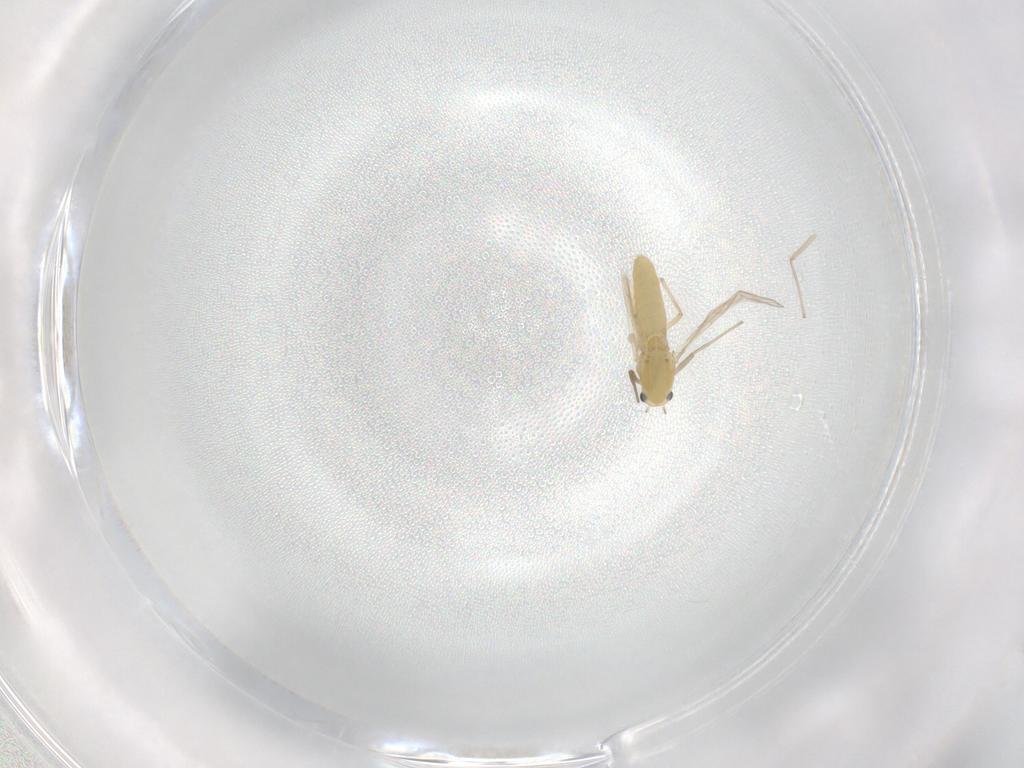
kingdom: Animalia
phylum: Arthropoda
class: Insecta
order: Diptera
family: Chironomidae
